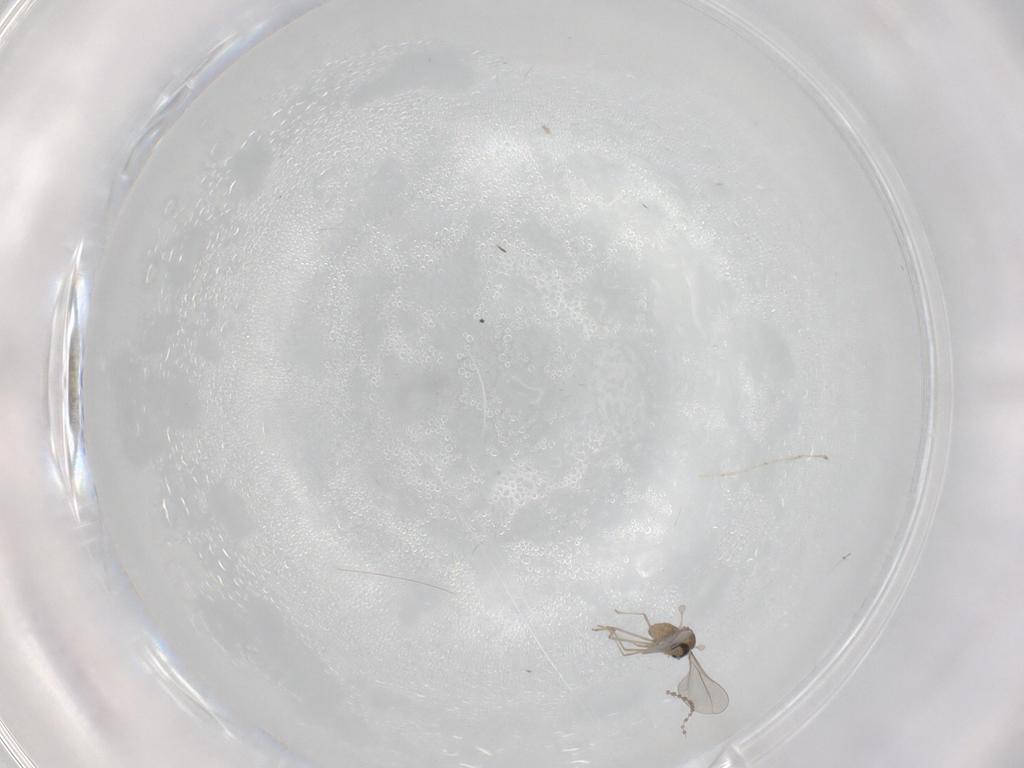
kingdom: Animalia
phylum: Arthropoda
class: Insecta
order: Diptera
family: Cecidomyiidae
